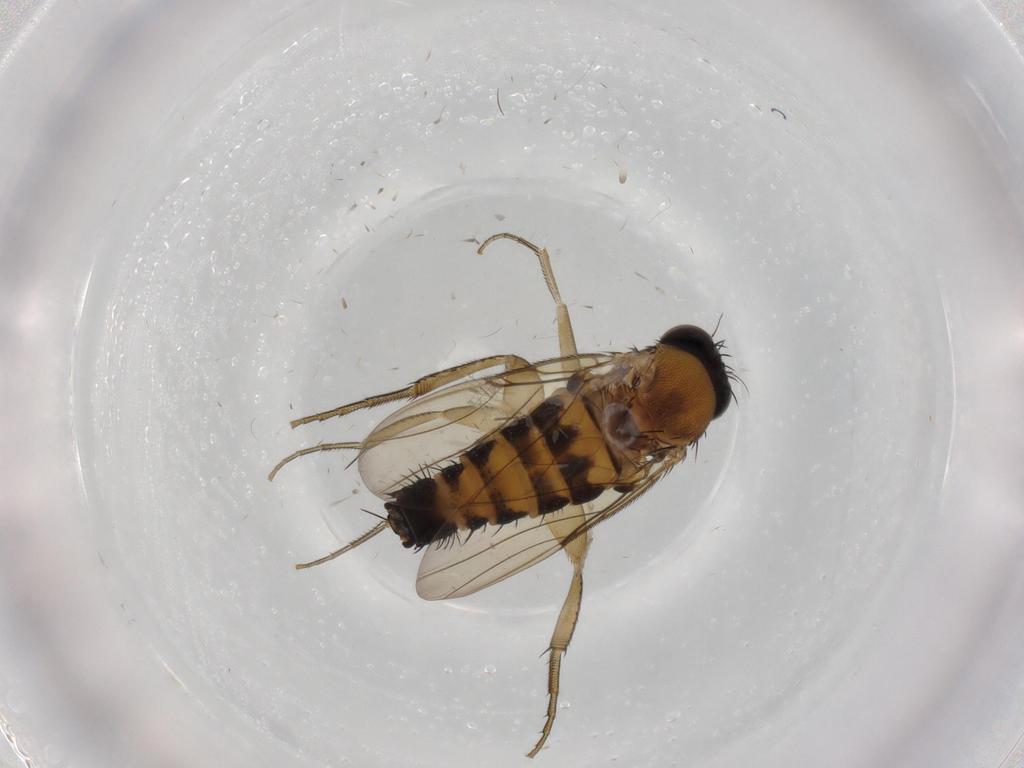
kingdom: Animalia
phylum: Arthropoda
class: Insecta
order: Diptera
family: Phoridae
